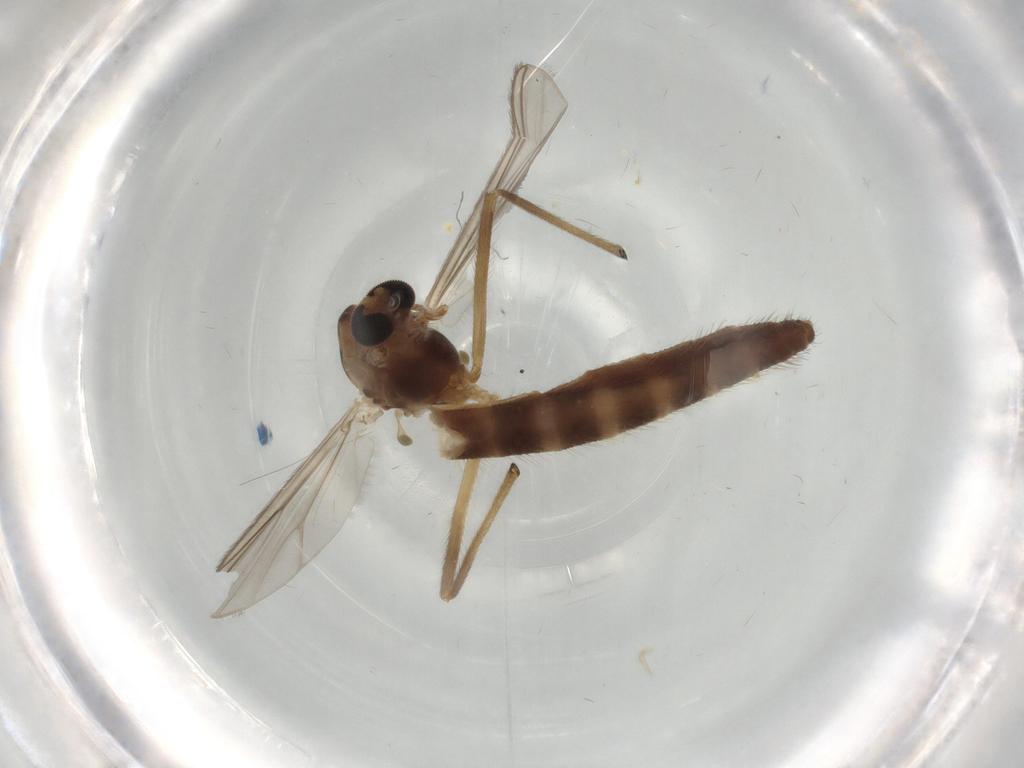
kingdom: Animalia
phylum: Arthropoda
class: Insecta
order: Diptera
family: Chironomidae
